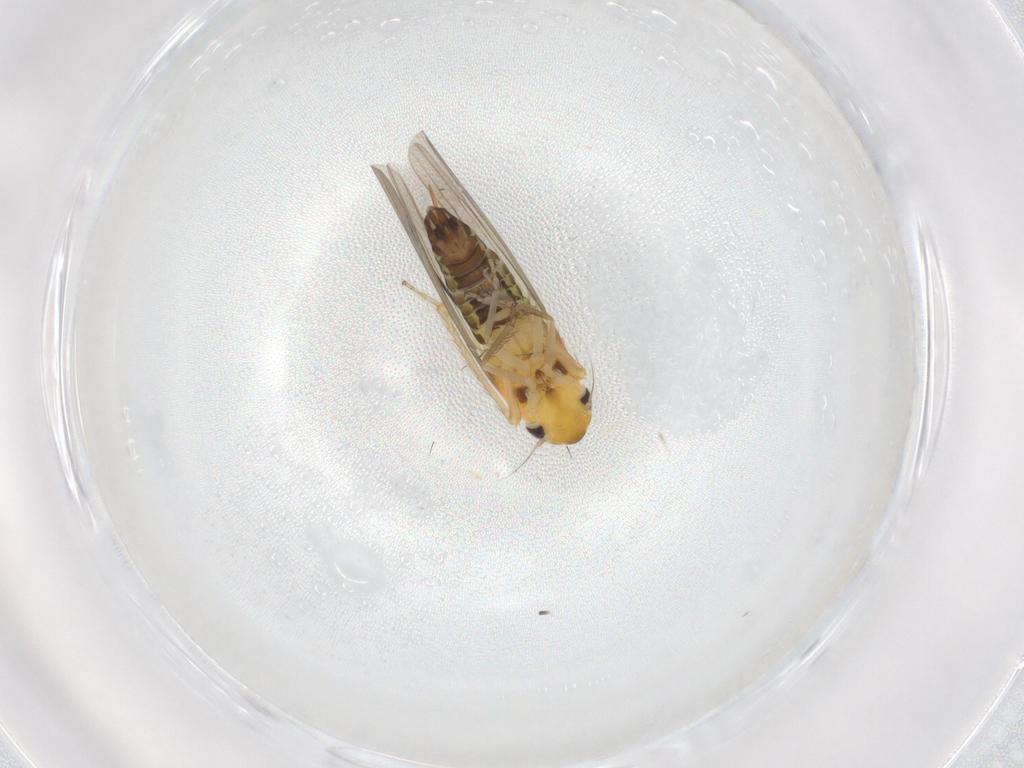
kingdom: Animalia
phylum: Arthropoda
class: Insecta
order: Hemiptera
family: Cicadellidae
